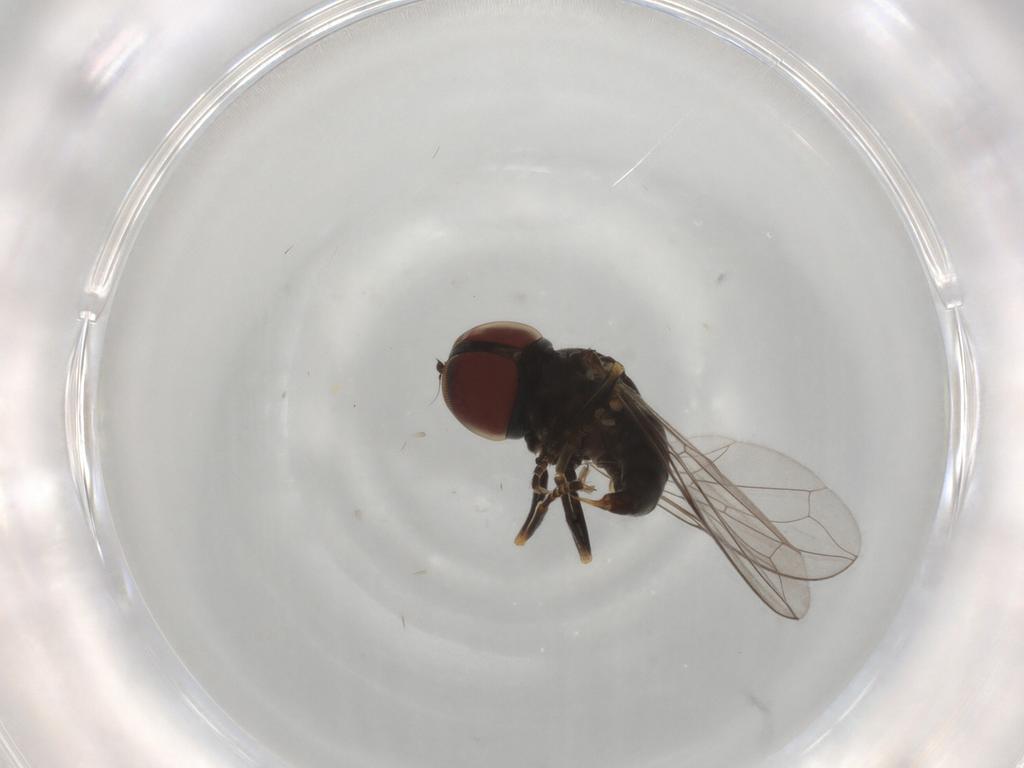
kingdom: Animalia
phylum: Arthropoda
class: Insecta
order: Diptera
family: Pipunculidae
